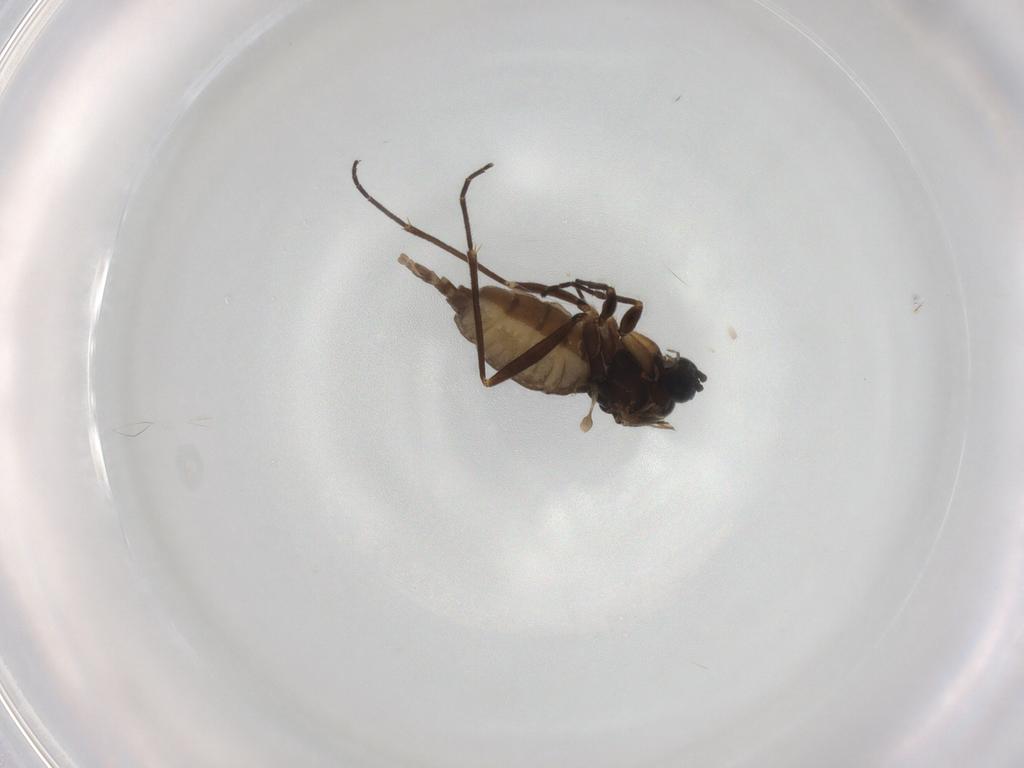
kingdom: Animalia
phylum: Arthropoda
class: Insecta
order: Diptera
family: Sciaridae
